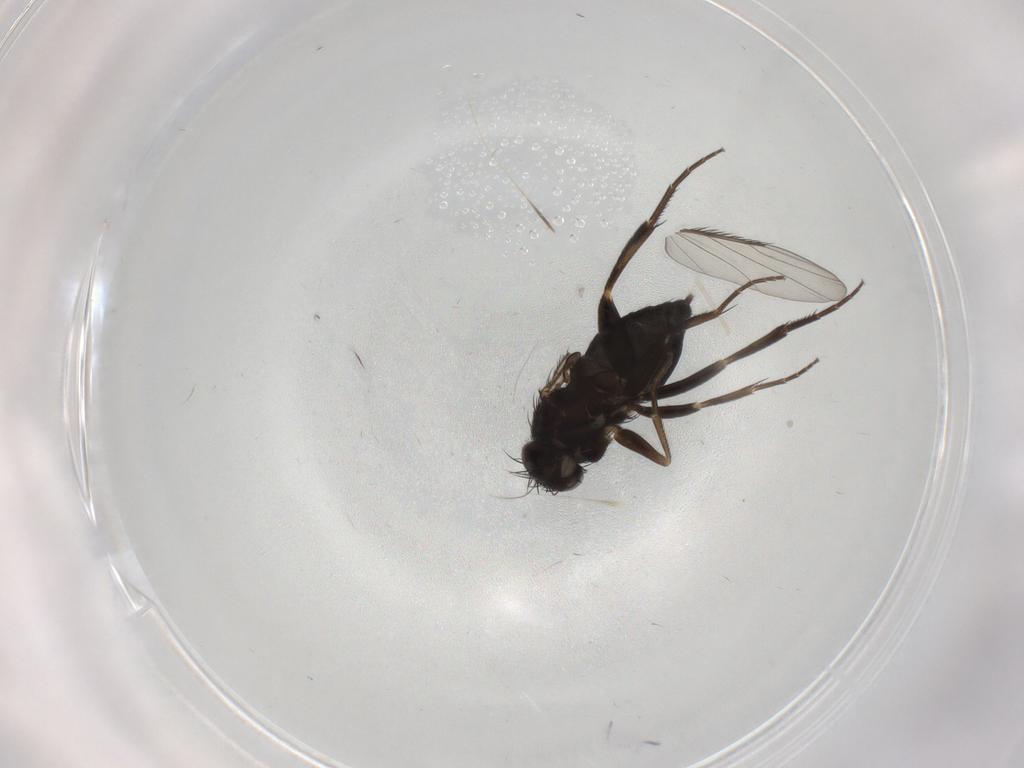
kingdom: Animalia
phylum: Arthropoda
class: Insecta
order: Diptera
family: Phoridae
